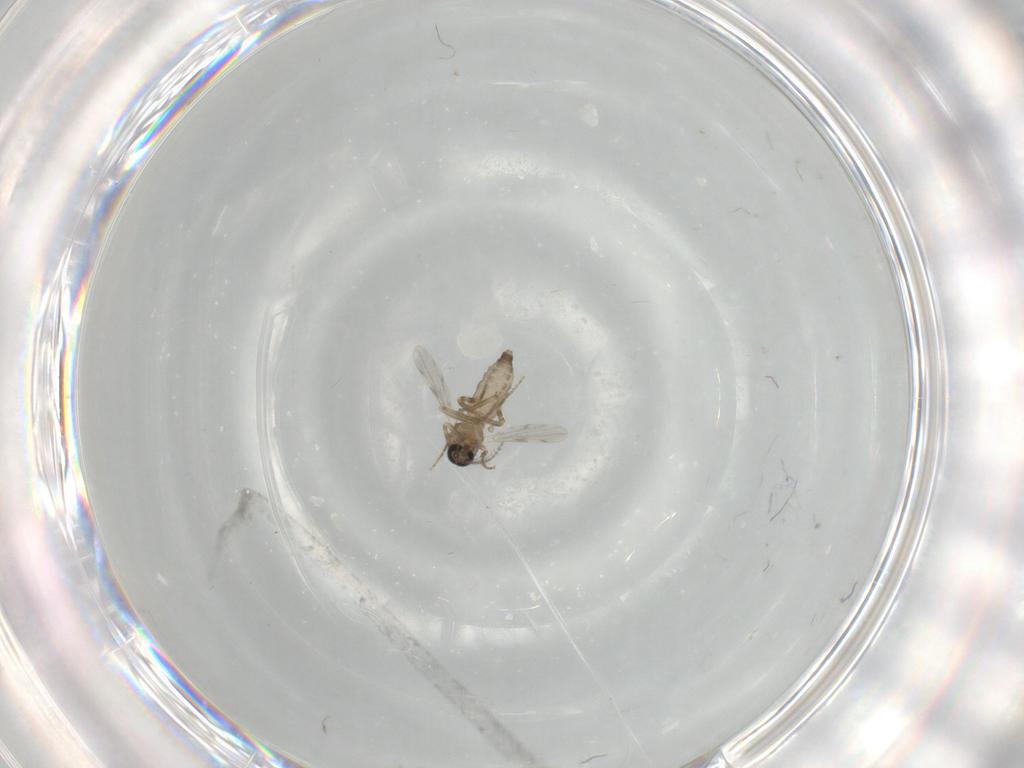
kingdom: Animalia
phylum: Arthropoda
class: Insecta
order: Diptera
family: Ceratopogonidae
